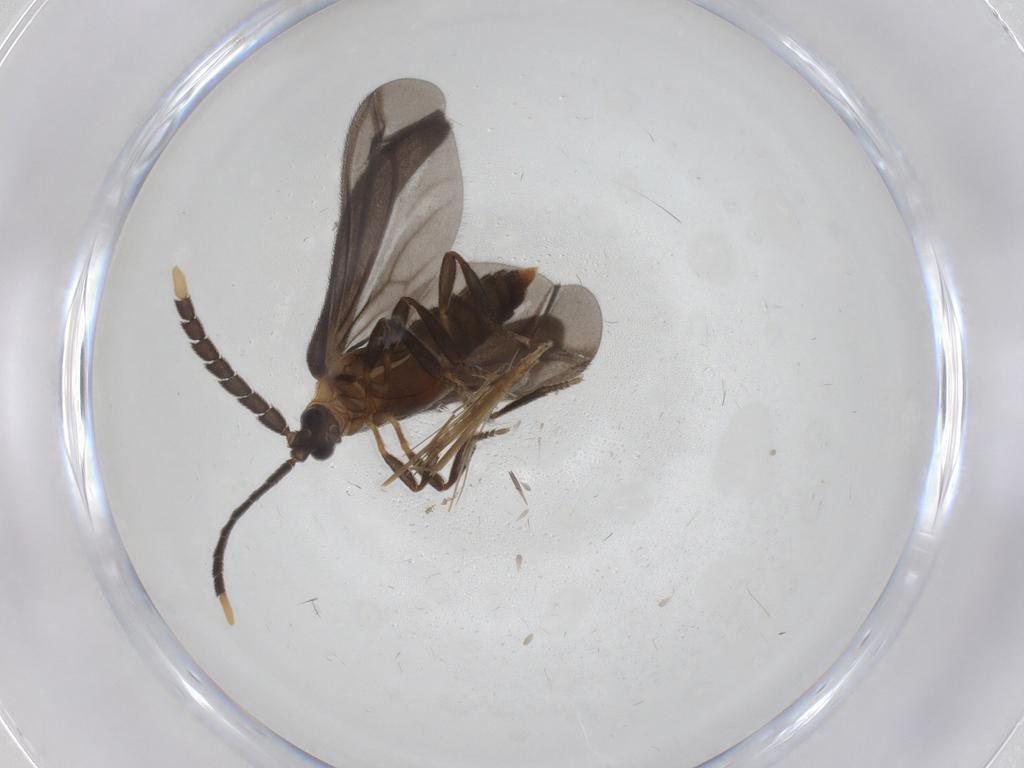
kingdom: Animalia
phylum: Arthropoda
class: Insecta
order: Coleoptera
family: Lycidae
